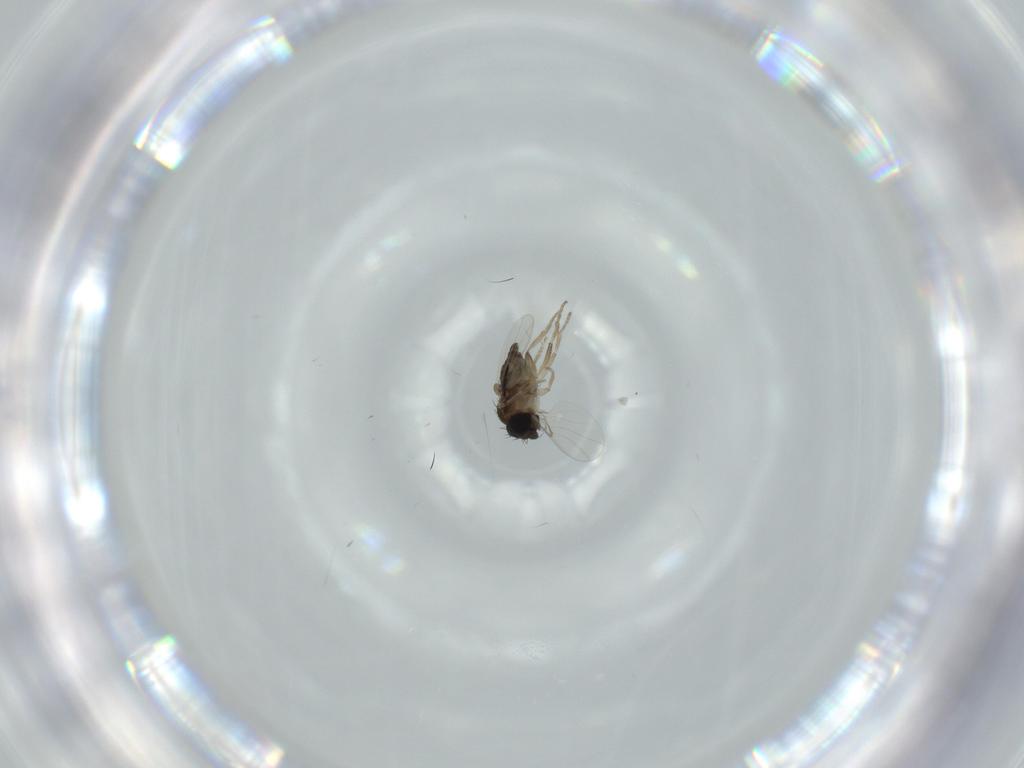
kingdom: Animalia
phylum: Arthropoda
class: Insecta
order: Diptera
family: Sciaridae
